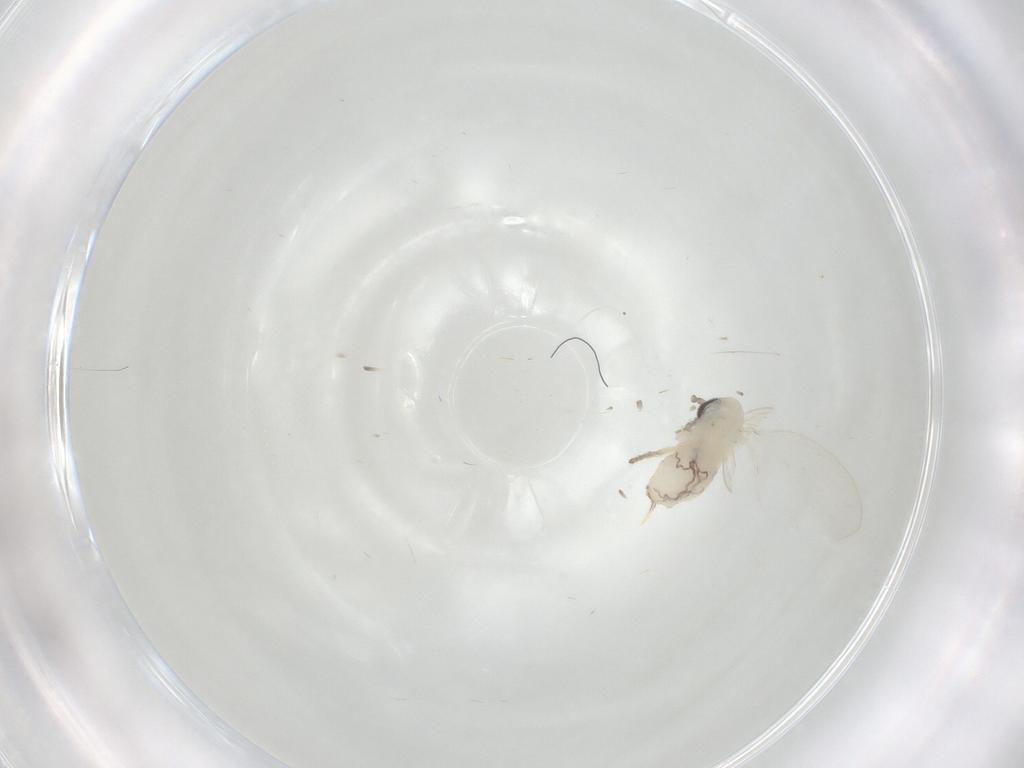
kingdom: Animalia
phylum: Arthropoda
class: Insecta
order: Diptera
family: Psychodidae
